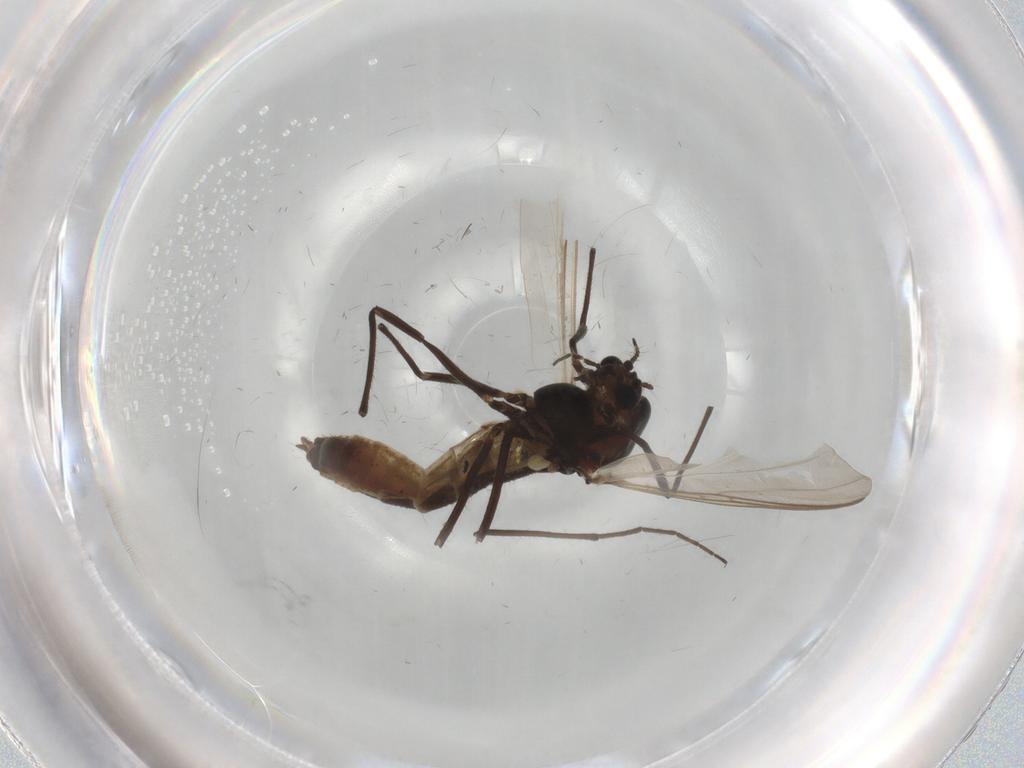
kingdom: Animalia
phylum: Arthropoda
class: Insecta
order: Diptera
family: Chironomidae
